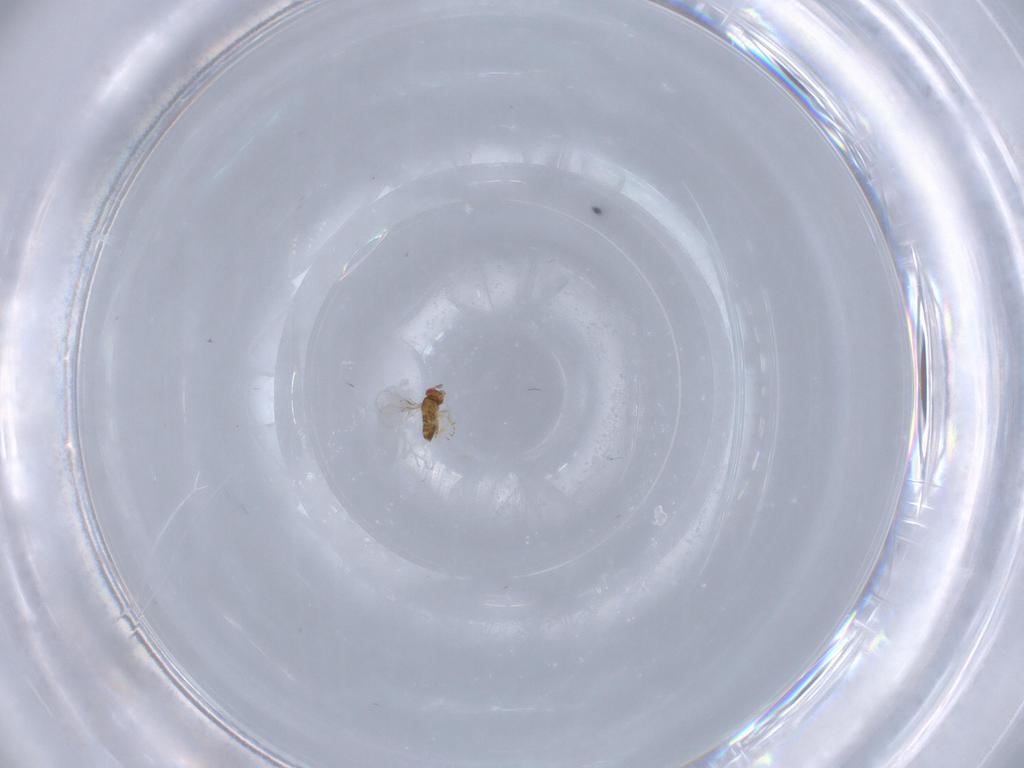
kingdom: Animalia
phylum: Arthropoda
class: Insecta
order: Hymenoptera
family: Trichogrammatidae
